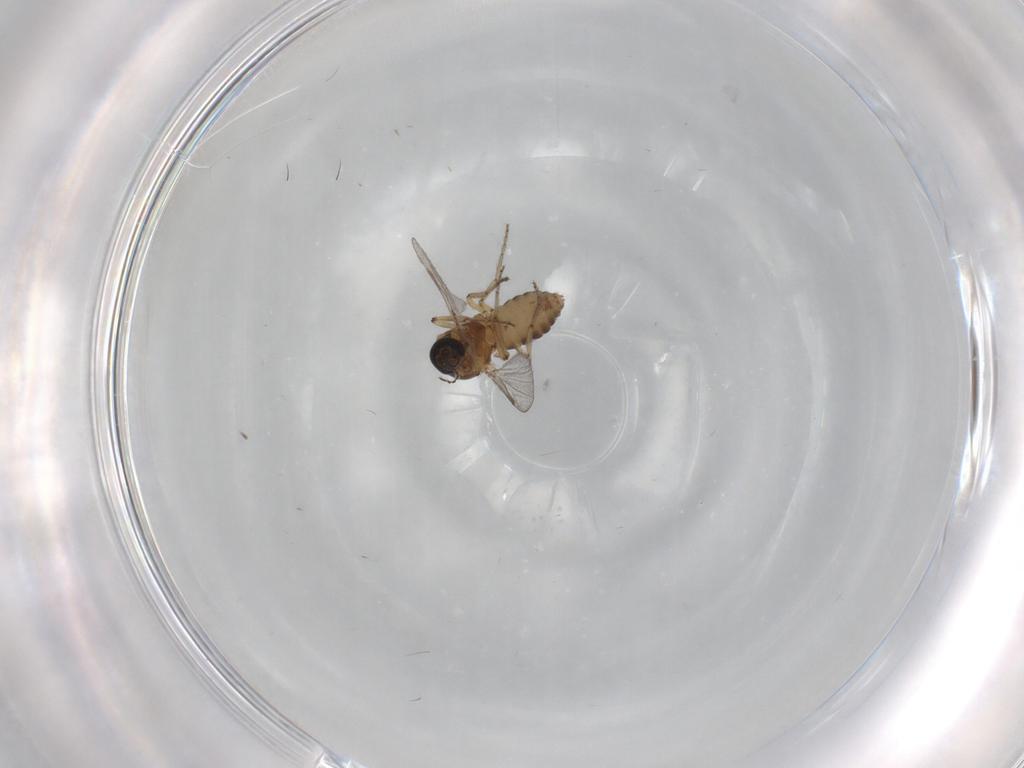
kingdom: Animalia
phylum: Arthropoda
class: Insecta
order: Diptera
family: Ceratopogonidae
